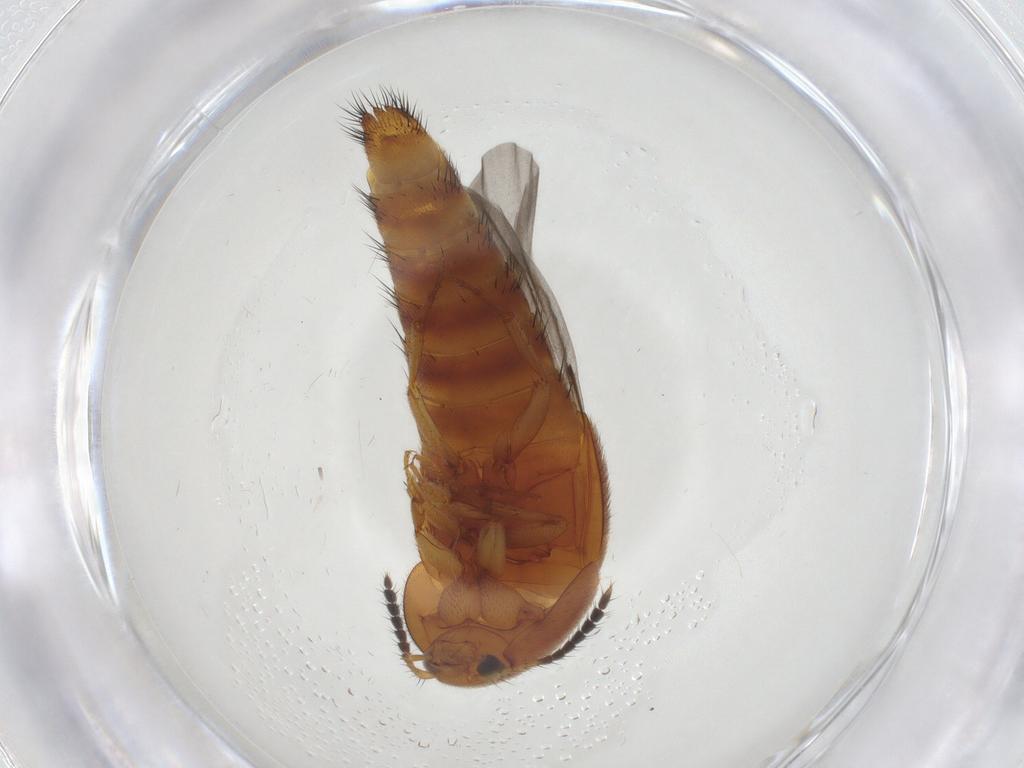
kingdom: Animalia
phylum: Arthropoda
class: Insecta
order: Coleoptera
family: Staphylinidae
